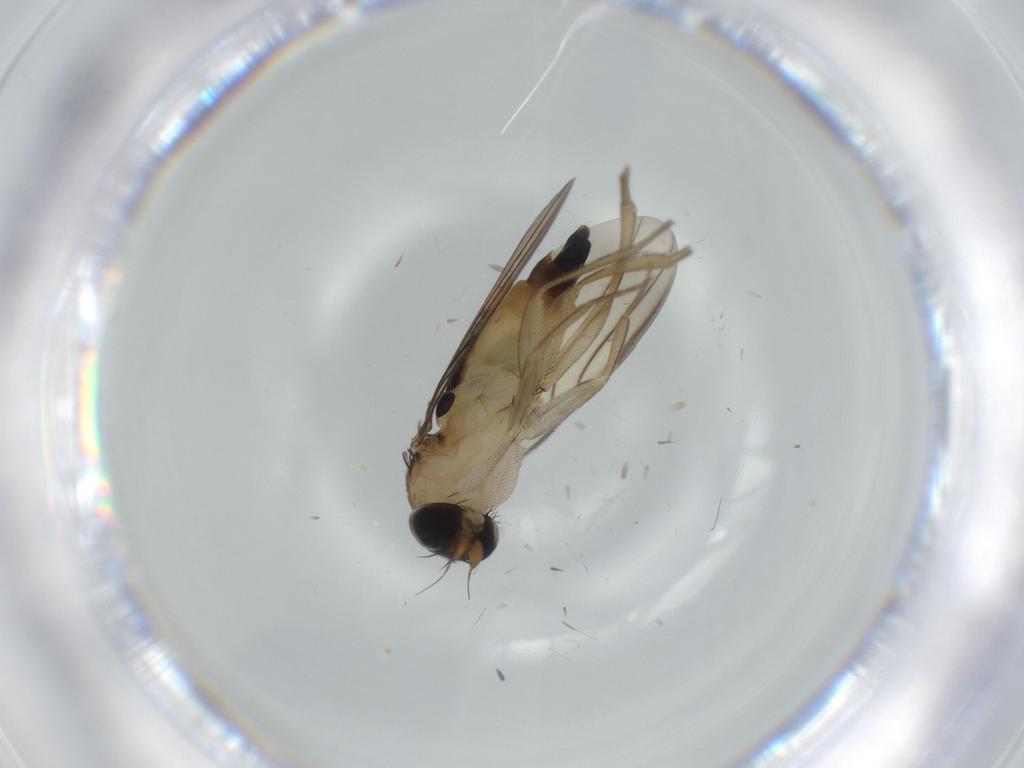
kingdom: Animalia
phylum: Arthropoda
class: Insecta
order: Diptera
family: Phoridae
